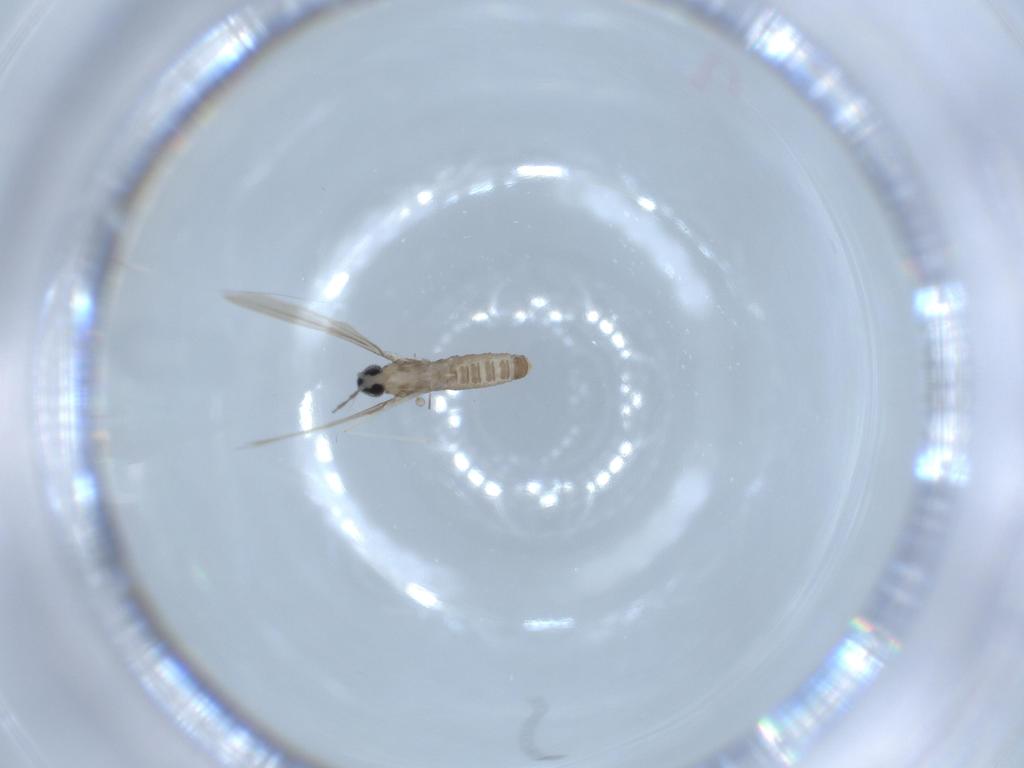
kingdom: Animalia
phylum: Arthropoda
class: Insecta
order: Diptera
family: Cecidomyiidae
